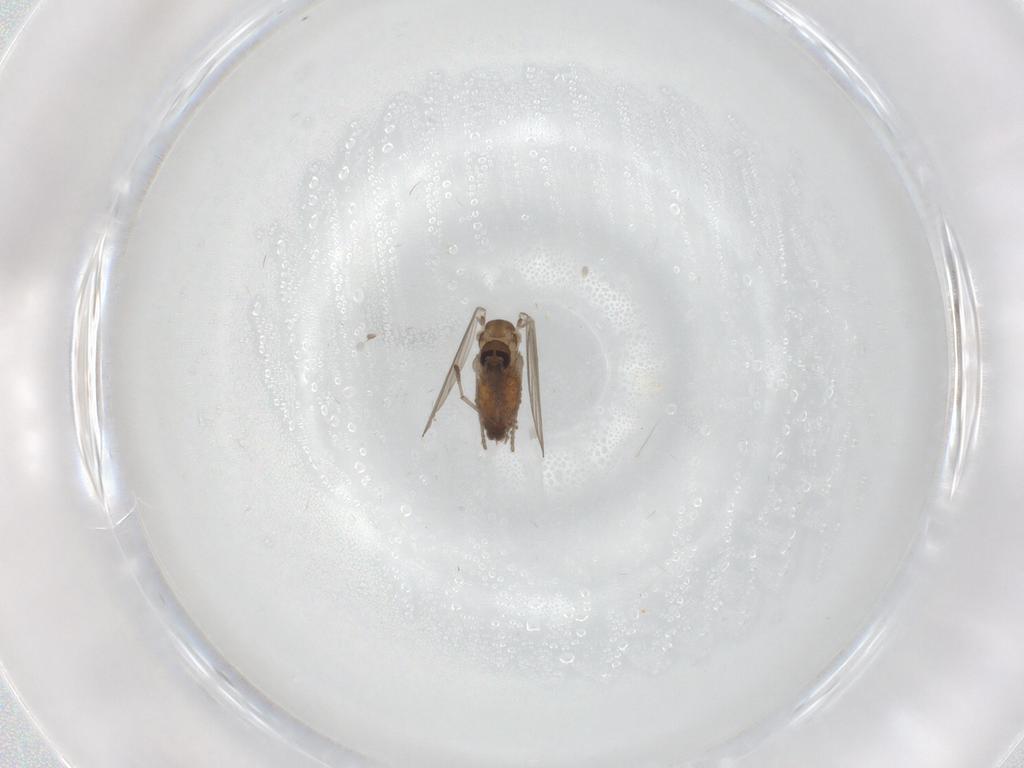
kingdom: Animalia
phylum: Arthropoda
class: Insecta
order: Diptera
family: Psychodidae
